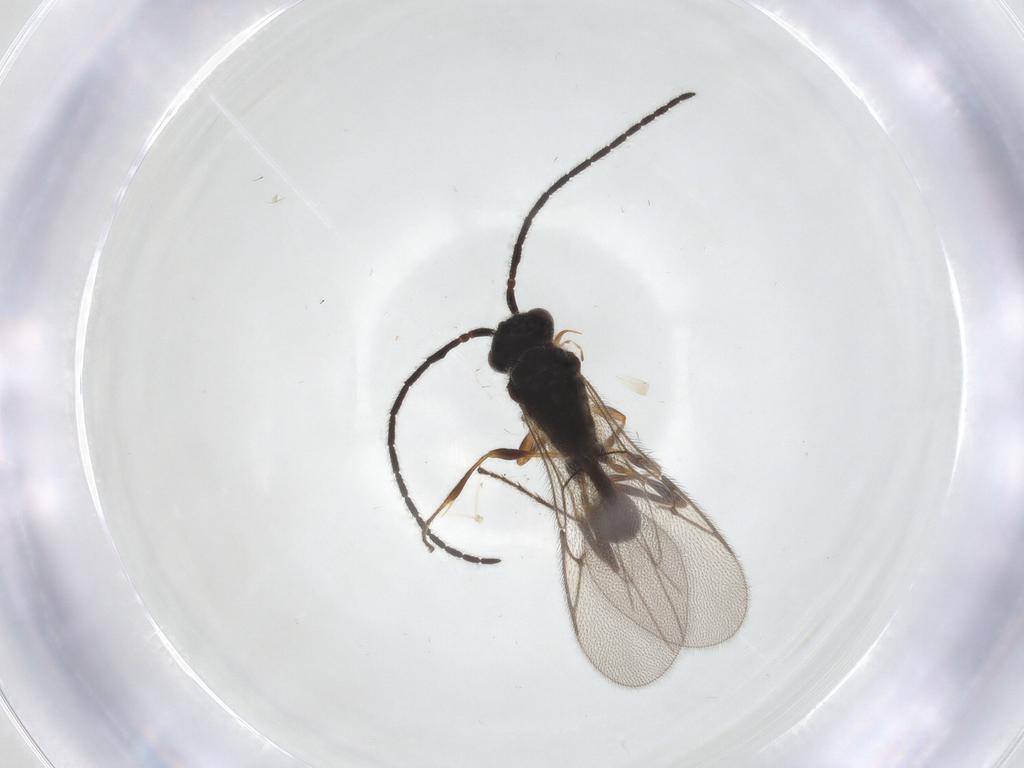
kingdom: Animalia
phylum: Arthropoda
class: Insecta
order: Hymenoptera
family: Diapriidae
